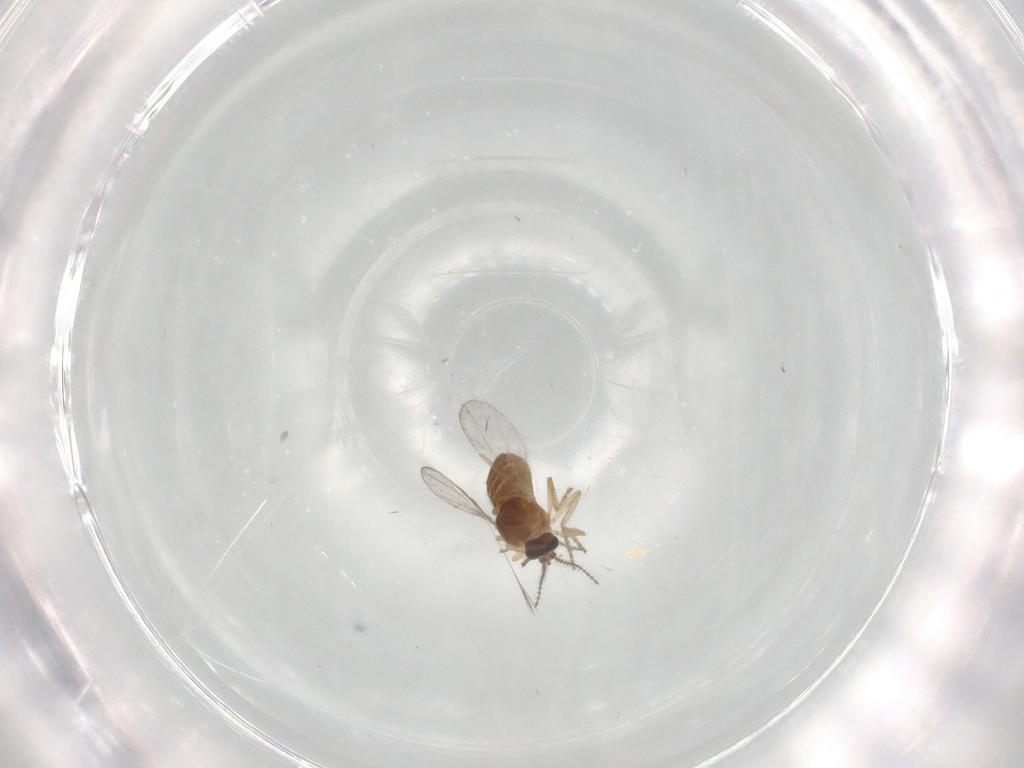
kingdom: Animalia
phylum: Arthropoda
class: Insecta
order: Diptera
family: Ceratopogonidae
